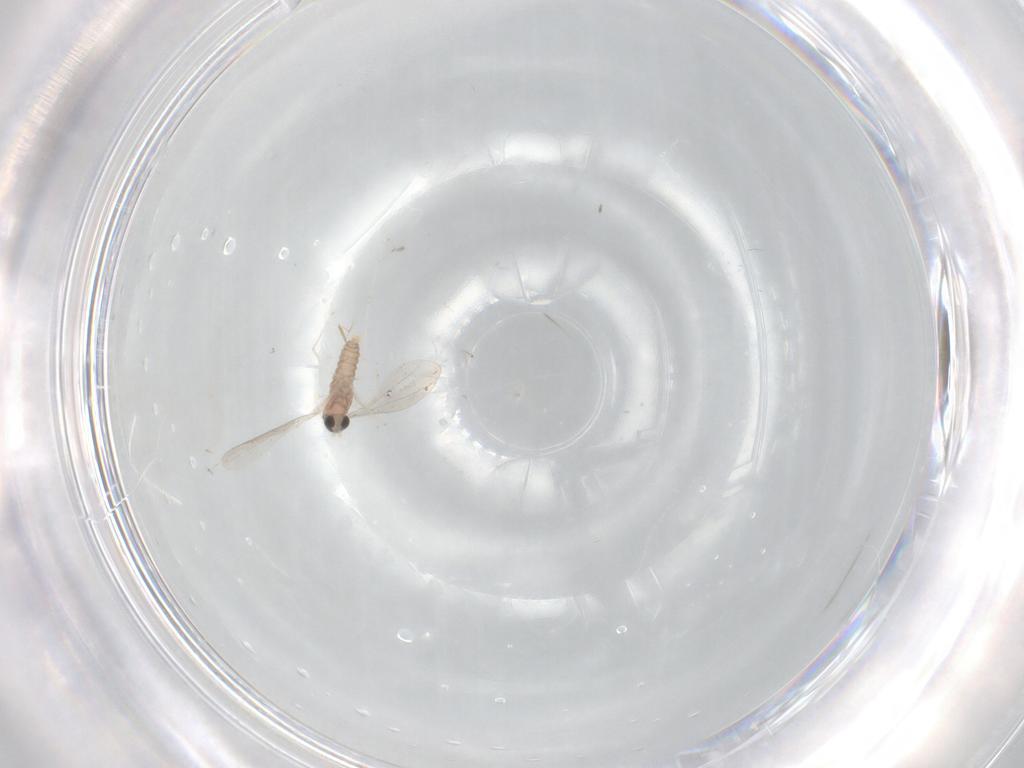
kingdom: Animalia
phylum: Arthropoda
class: Insecta
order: Diptera
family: Cecidomyiidae
